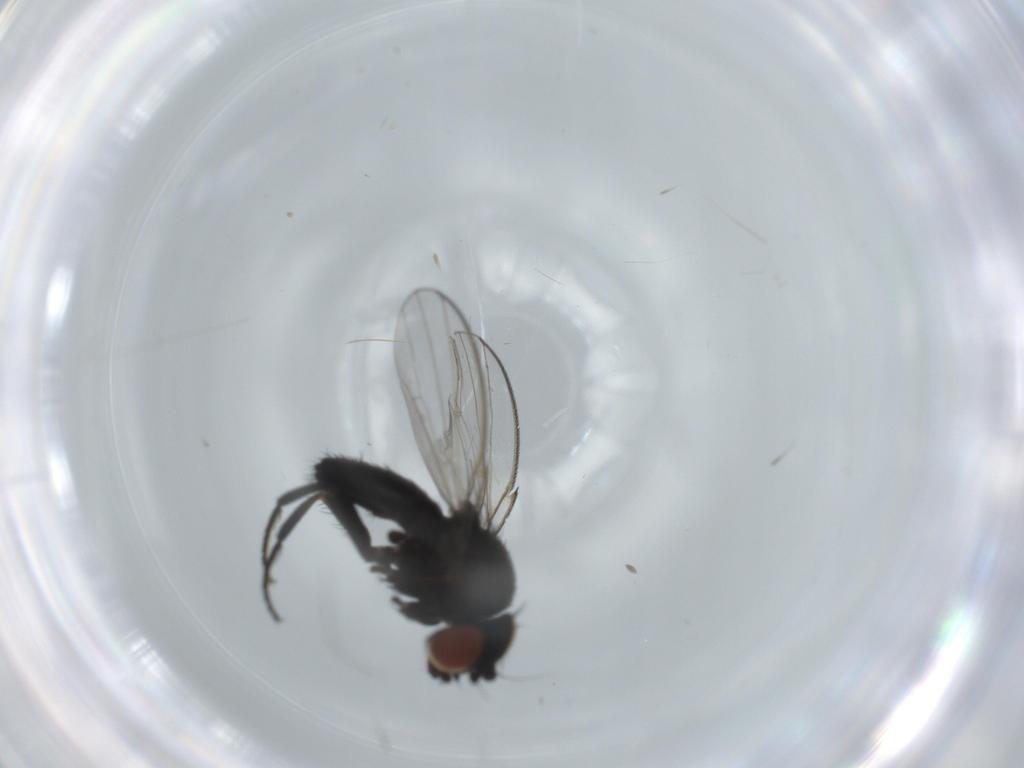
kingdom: Animalia
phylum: Arthropoda
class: Insecta
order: Diptera
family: Milichiidae
